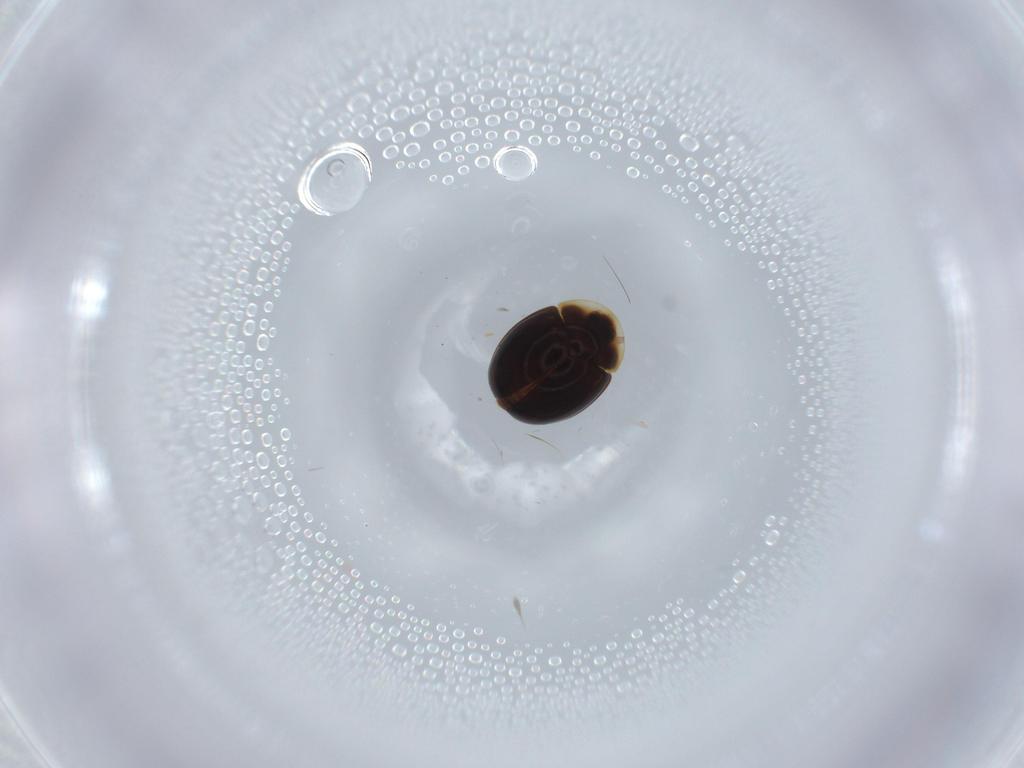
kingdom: Animalia
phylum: Arthropoda
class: Insecta
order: Coleoptera
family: Corylophidae
